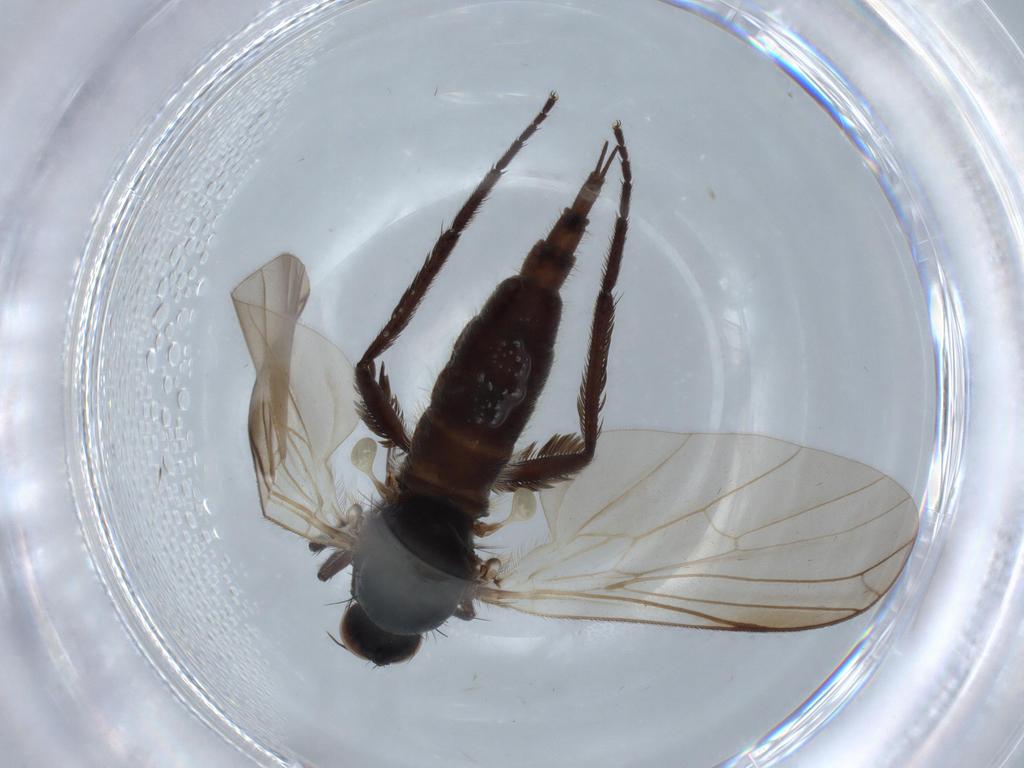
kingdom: Animalia
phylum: Arthropoda
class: Insecta
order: Diptera
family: Empididae
